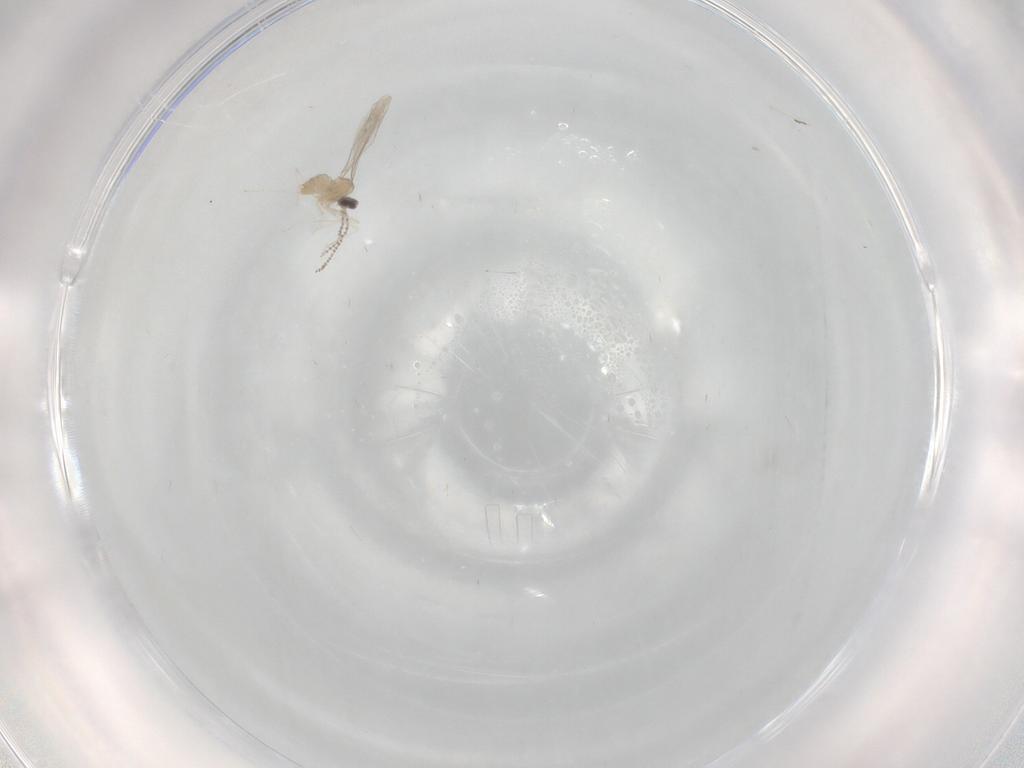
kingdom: Animalia
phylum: Arthropoda
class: Insecta
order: Diptera
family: Cecidomyiidae
